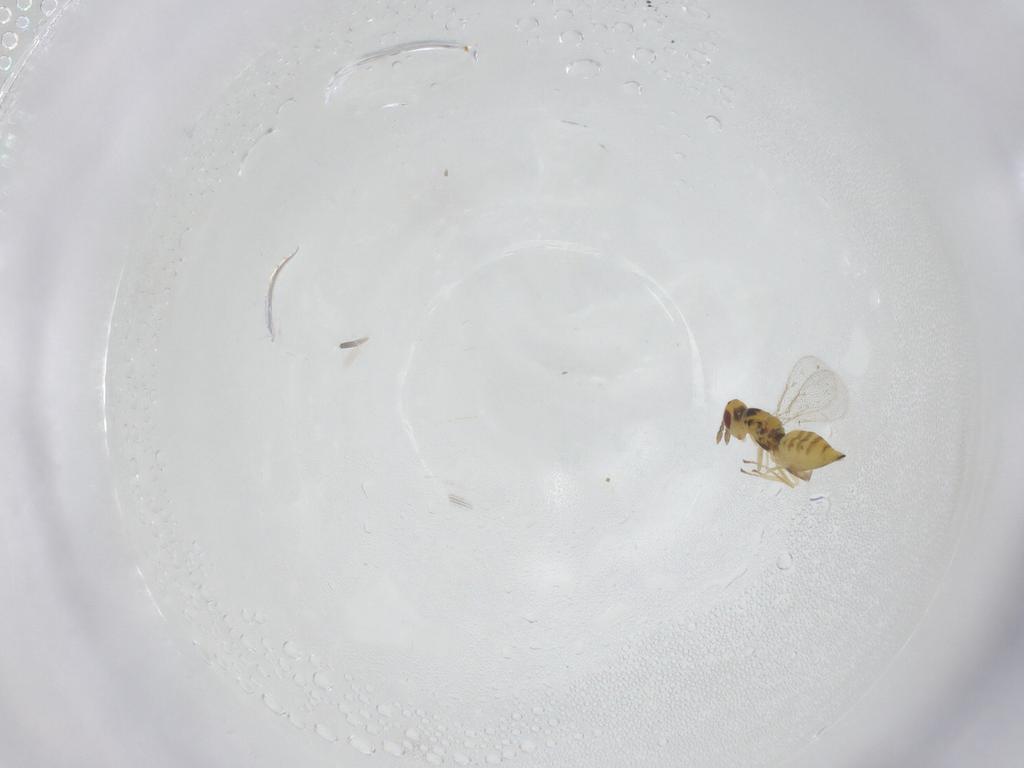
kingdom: Animalia
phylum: Arthropoda
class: Insecta
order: Hymenoptera
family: Eulophidae
